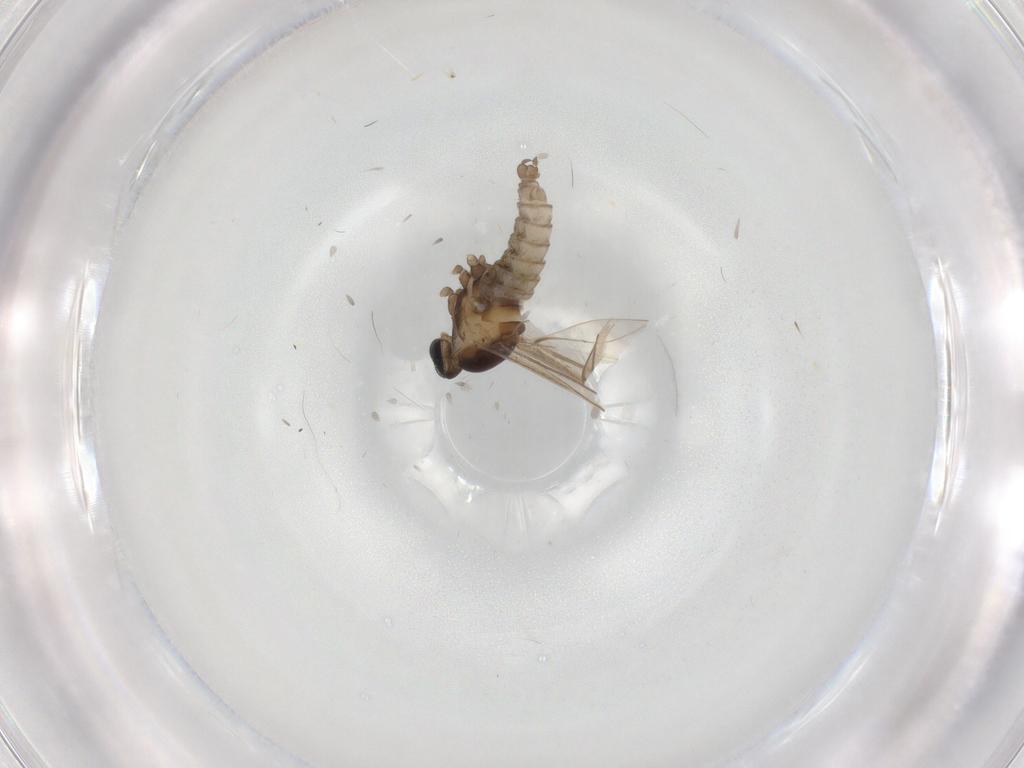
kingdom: Animalia
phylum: Arthropoda
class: Insecta
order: Diptera
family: Cecidomyiidae
